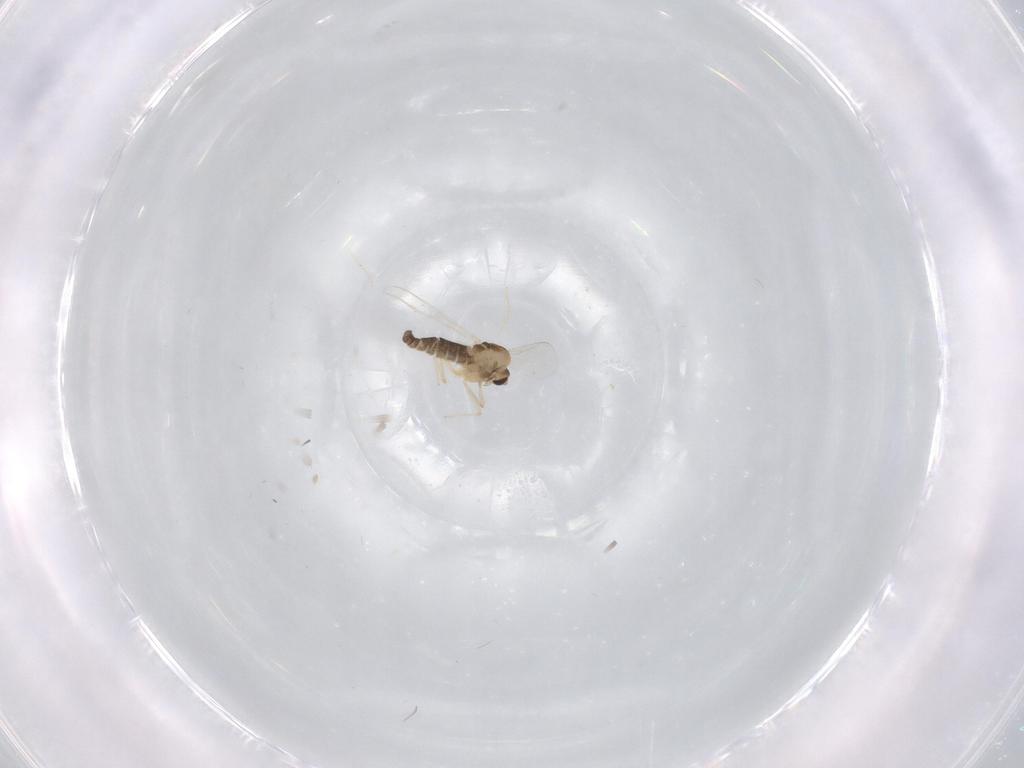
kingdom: Animalia
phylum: Arthropoda
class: Insecta
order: Diptera
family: Chironomidae
